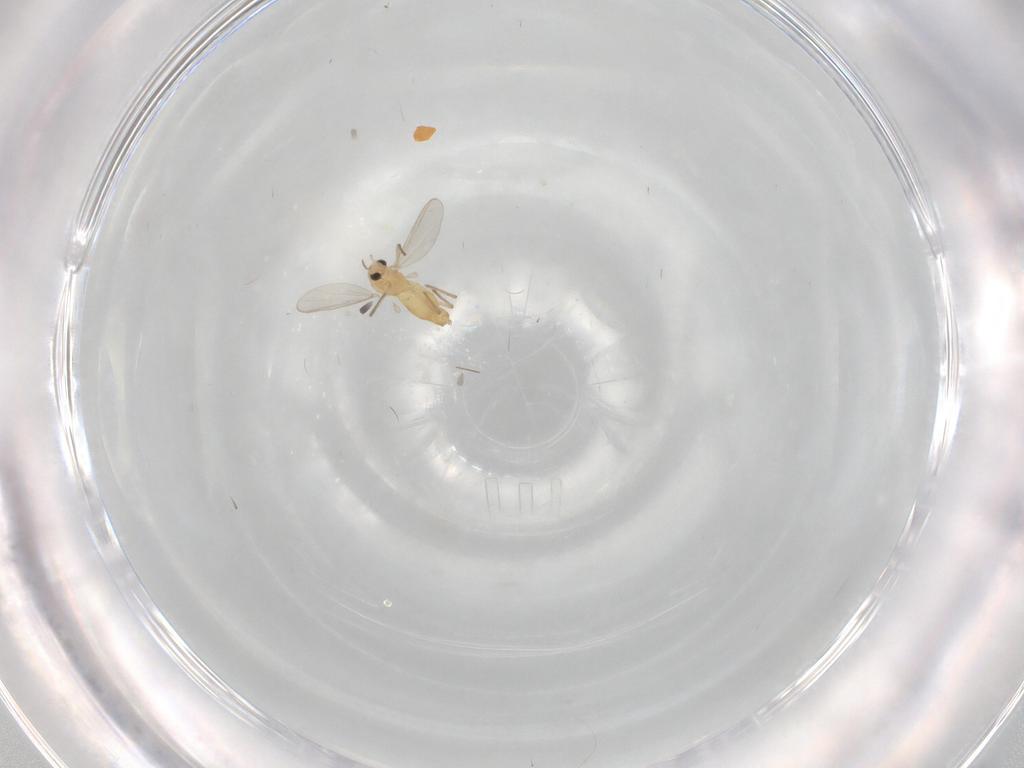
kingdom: Animalia
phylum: Arthropoda
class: Insecta
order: Diptera
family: Chironomidae
